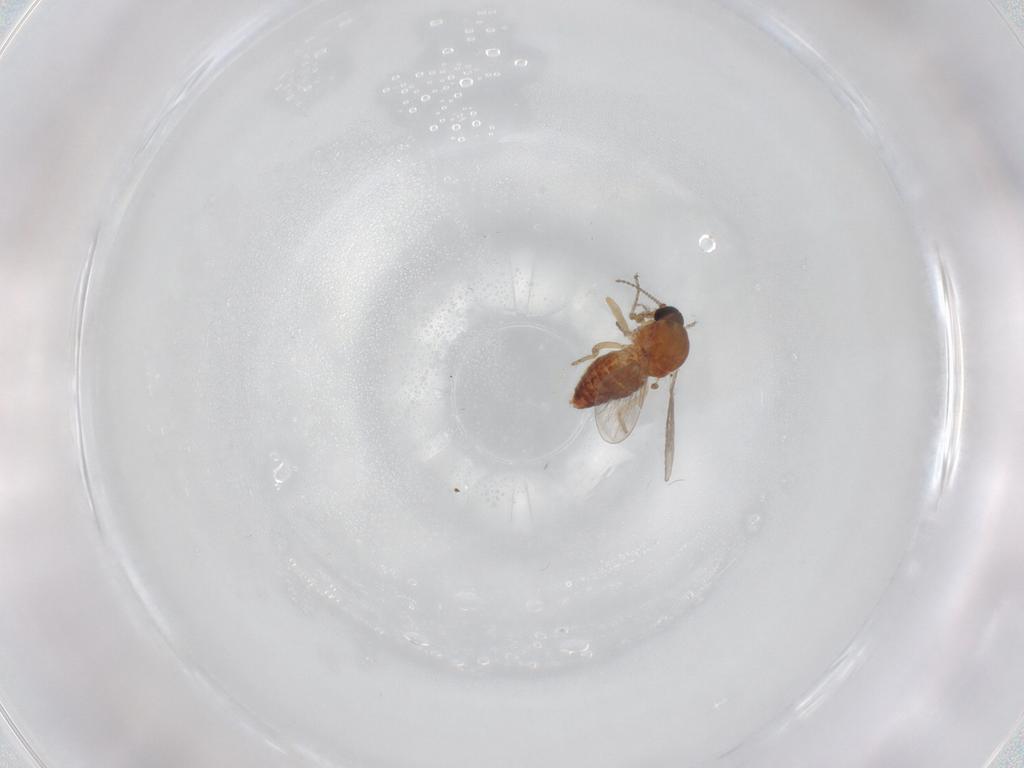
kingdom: Animalia
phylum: Arthropoda
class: Insecta
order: Diptera
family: Ceratopogonidae
